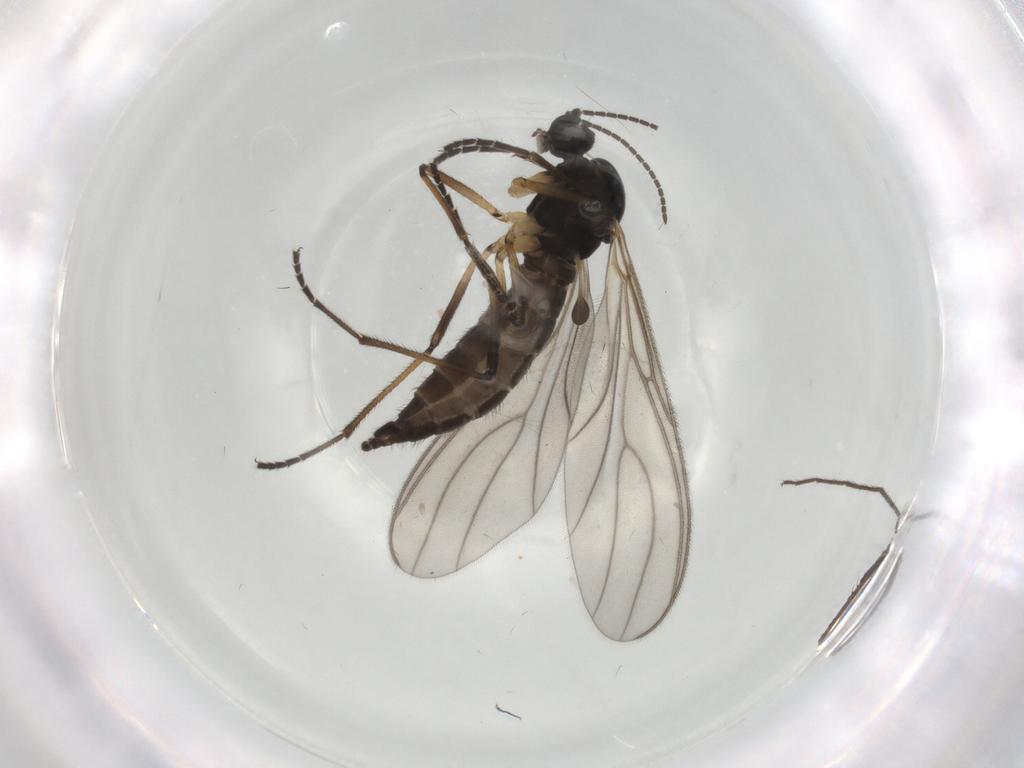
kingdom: Animalia
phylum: Arthropoda
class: Insecta
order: Diptera
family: Sciaridae
